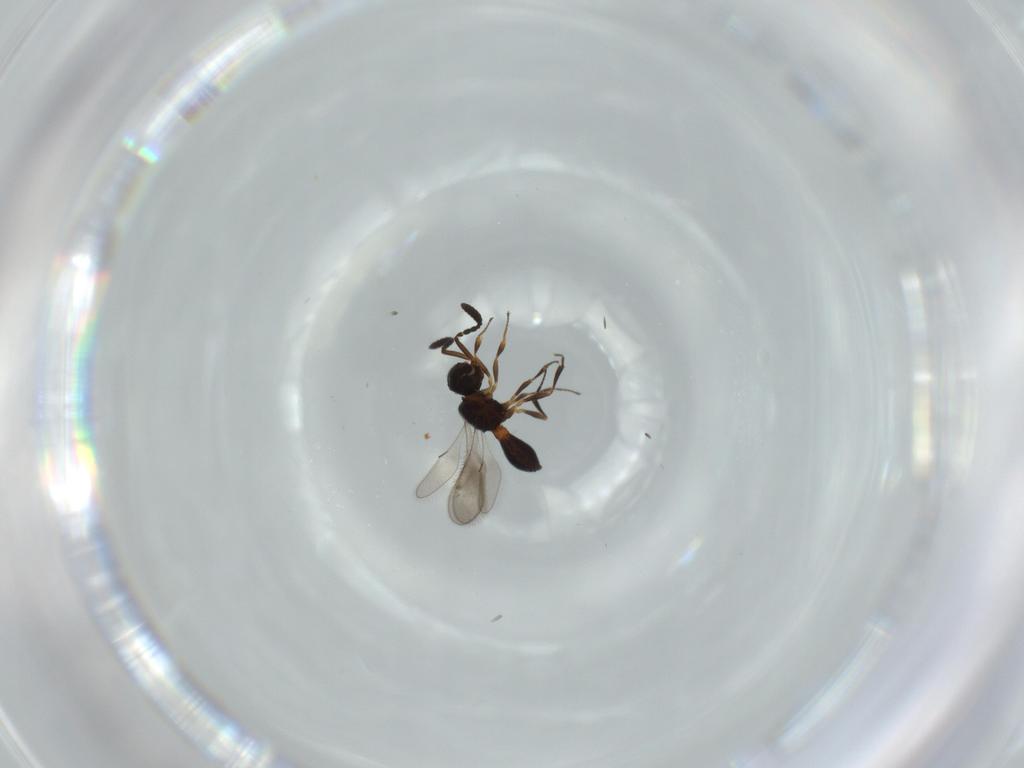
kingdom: Animalia
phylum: Arthropoda
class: Insecta
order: Hymenoptera
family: Scelionidae
